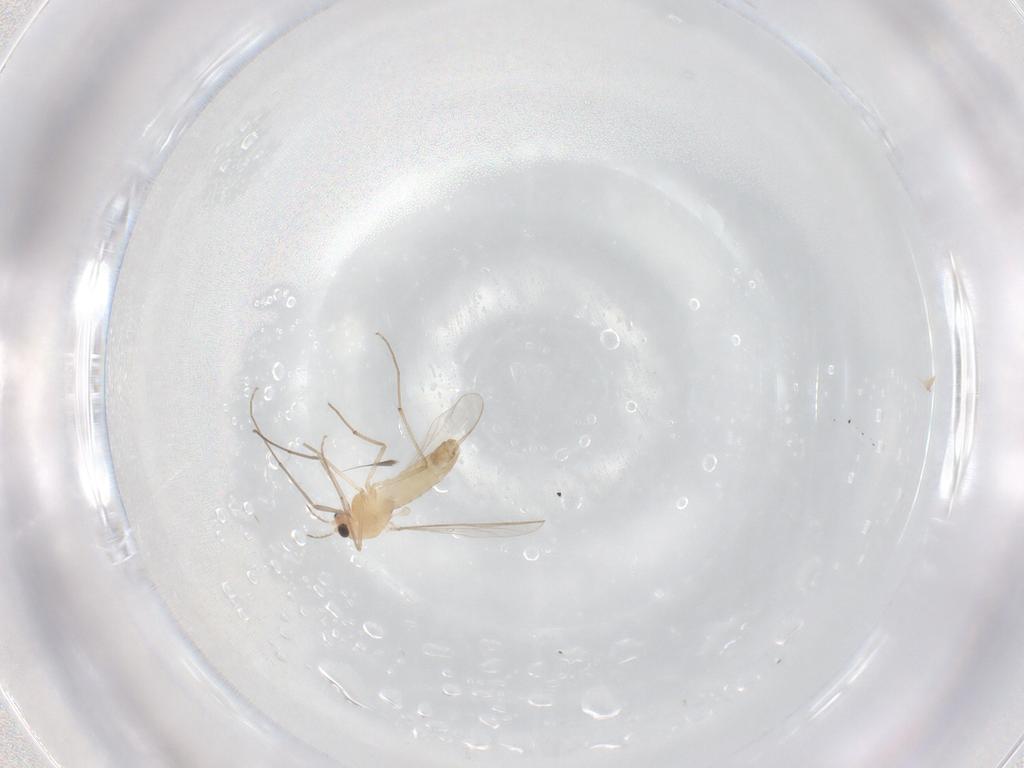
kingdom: Animalia
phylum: Arthropoda
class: Insecta
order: Diptera
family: Chironomidae
